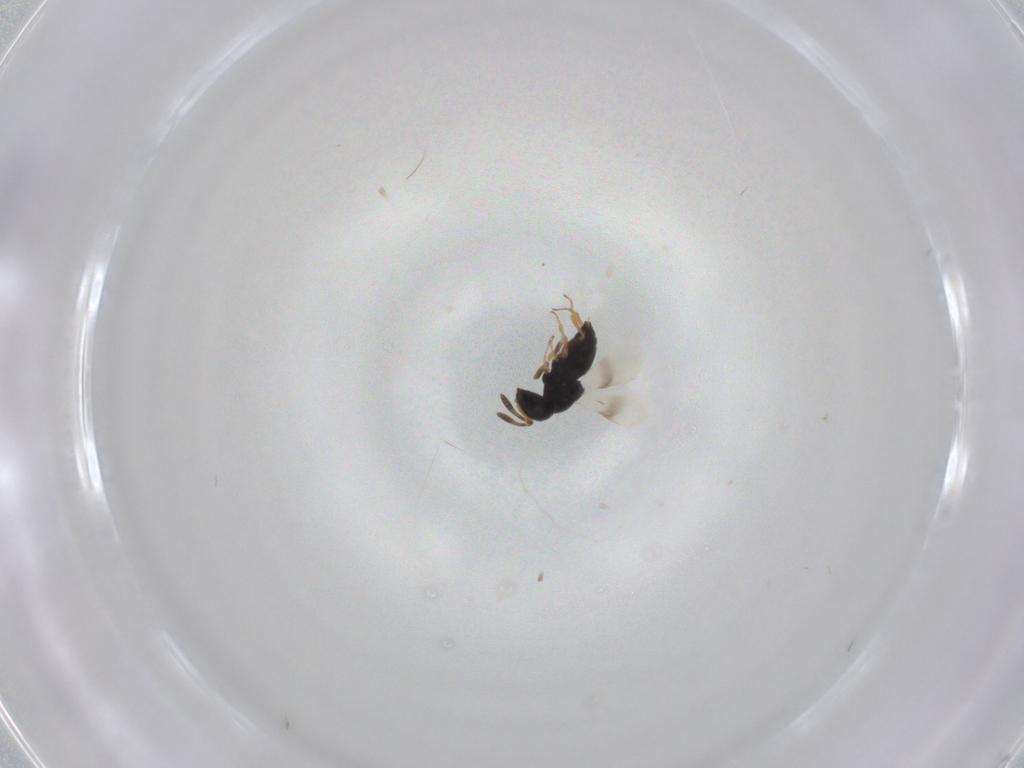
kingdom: Animalia
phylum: Arthropoda
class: Insecta
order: Hymenoptera
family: Scelionidae
